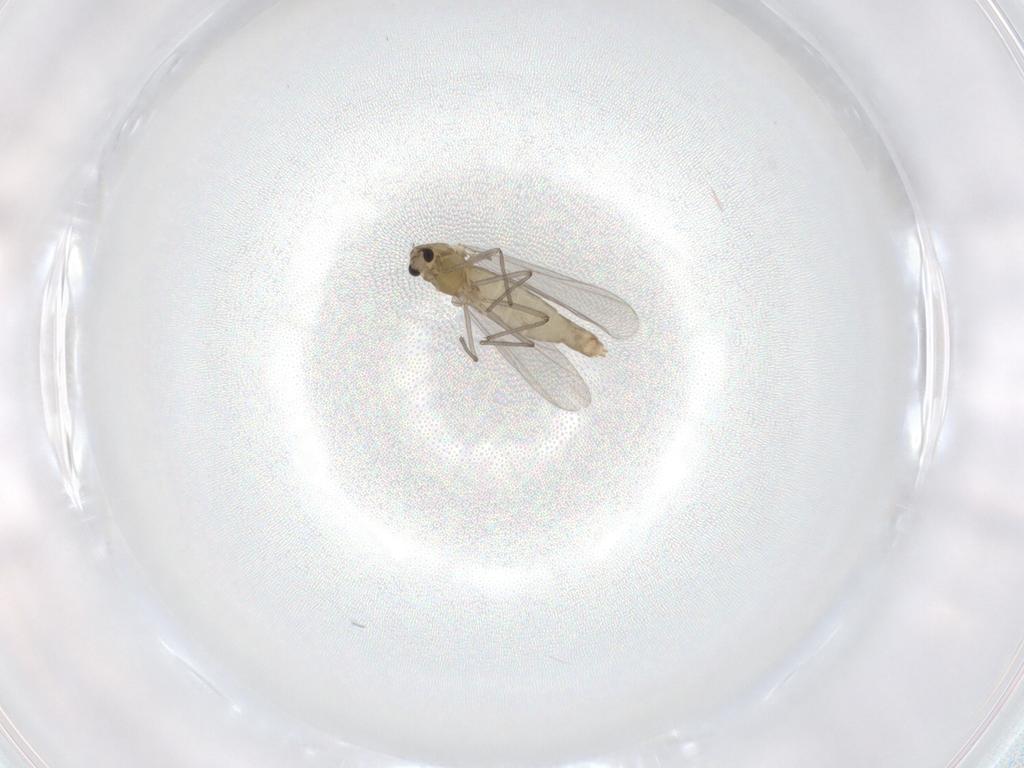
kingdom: Animalia
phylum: Arthropoda
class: Insecta
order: Diptera
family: Chironomidae
